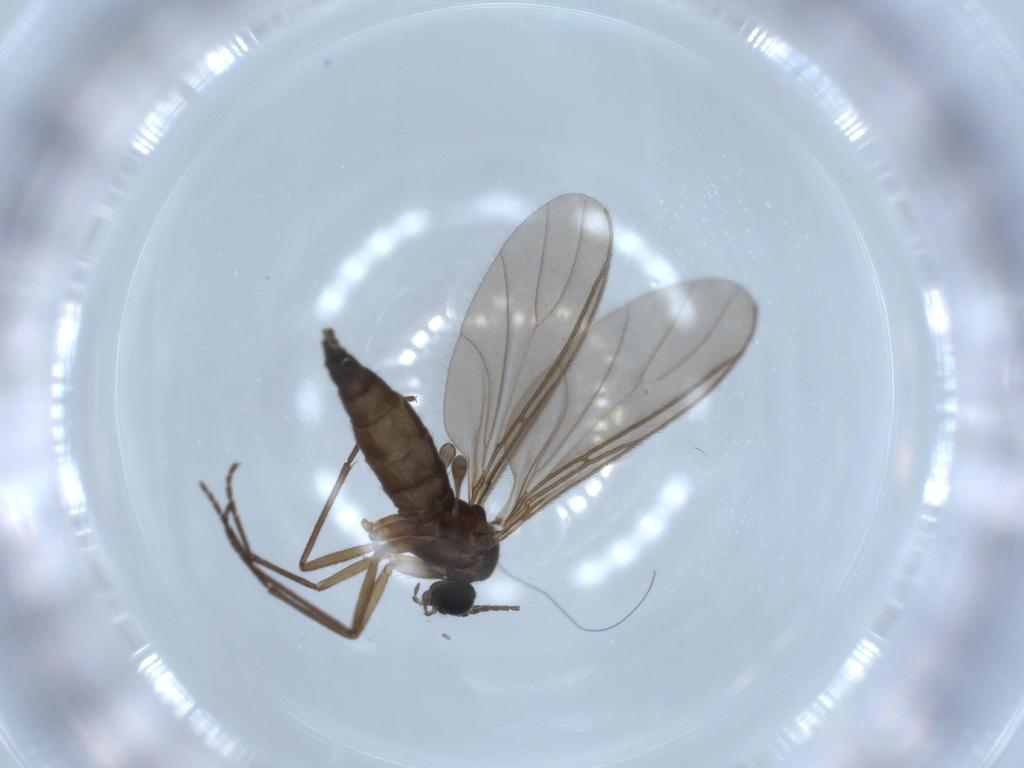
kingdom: Animalia
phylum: Arthropoda
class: Insecta
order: Diptera
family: Sciaridae
